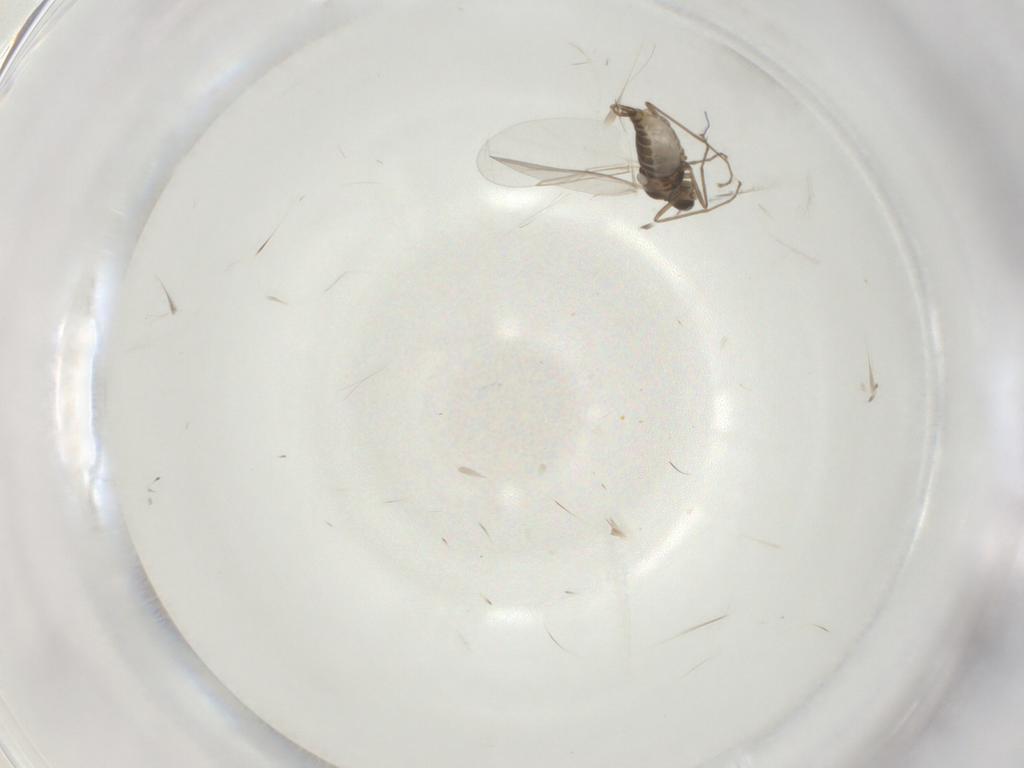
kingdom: Animalia
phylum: Arthropoda
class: Insecta
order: Diptera
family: Cecidomyiidae
